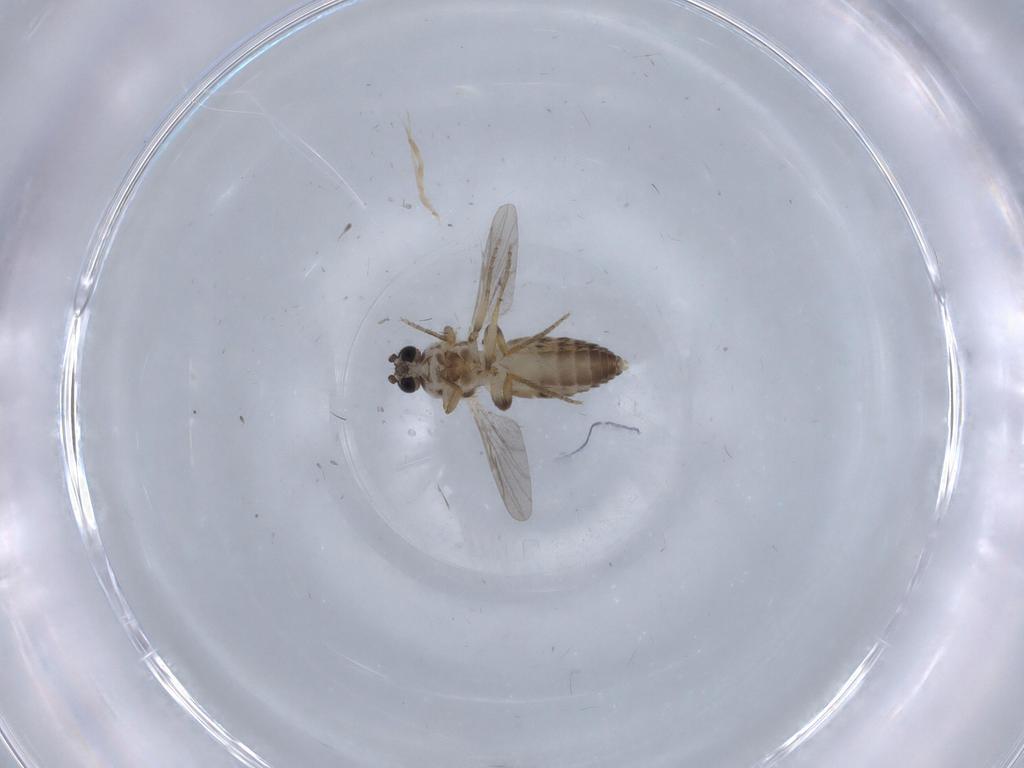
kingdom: Animalia
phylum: Arthropoda
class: Insecta
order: Diptera
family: Ceratopogonidae
